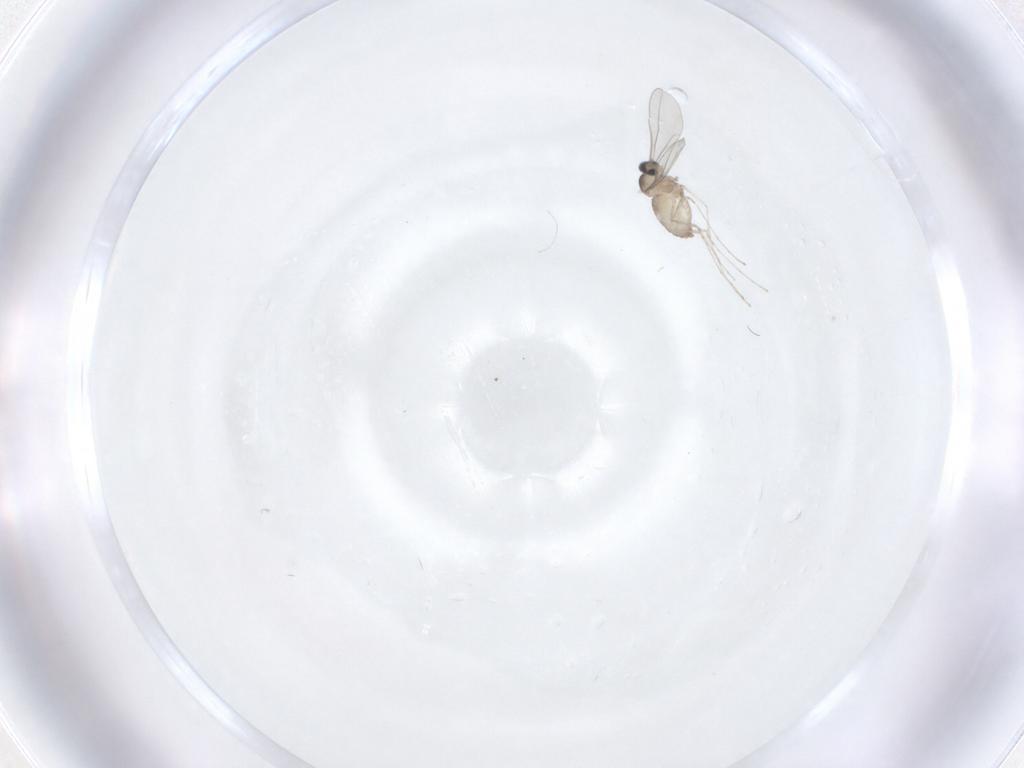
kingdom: Animalia
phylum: Arthropoda
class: Insecta
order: Diptera
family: Cecidomyiidae
